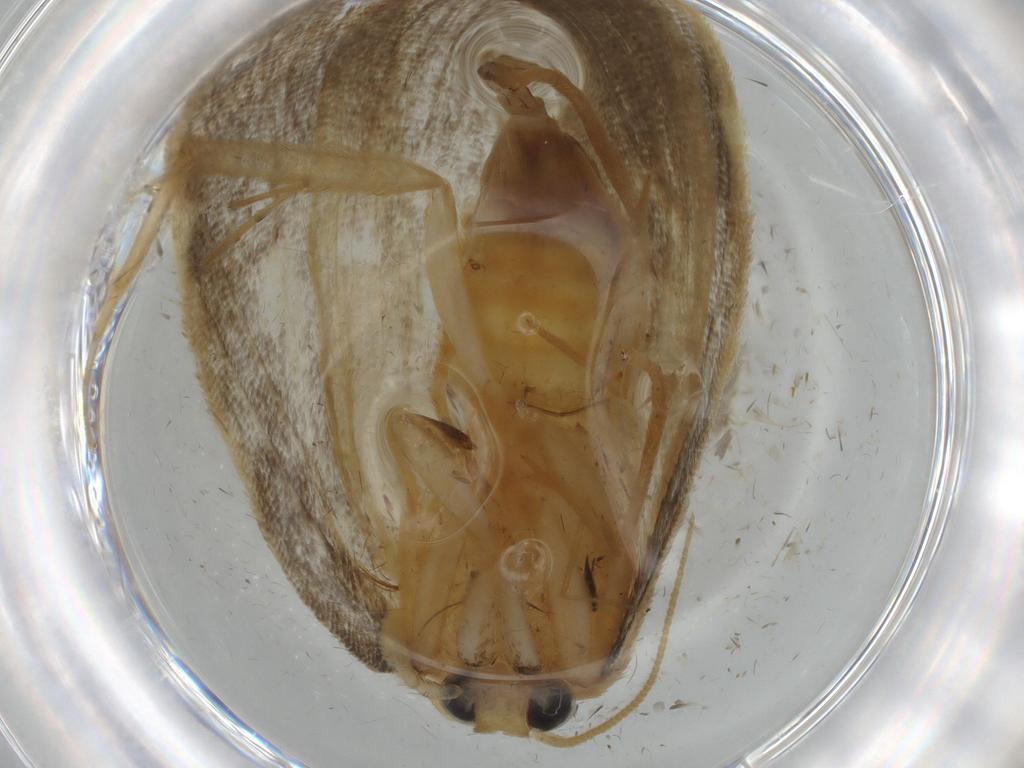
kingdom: Animalia
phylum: Arthropoda
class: Insecta
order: Lepidoptera
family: Psychidae
